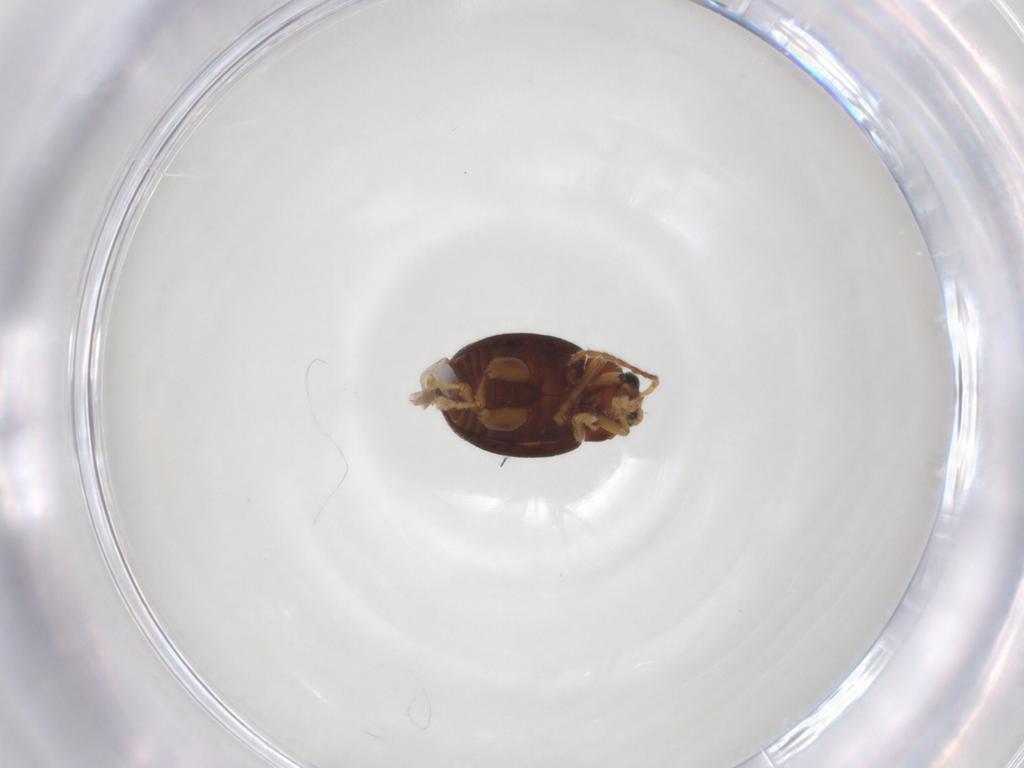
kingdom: Animalia
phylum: Arthropoda
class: Insecta
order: Coleoptera
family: Chrysomelidae
